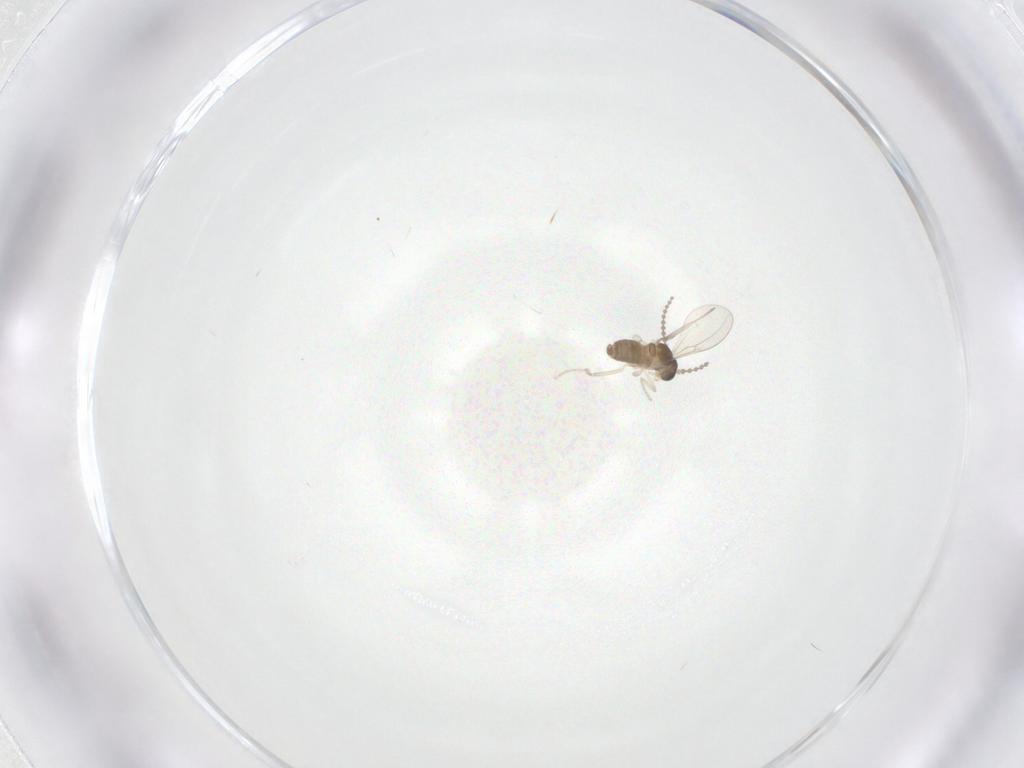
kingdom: Animalia
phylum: Arthropoda
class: Insecta
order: Diptera
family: Cecidomyiidae
